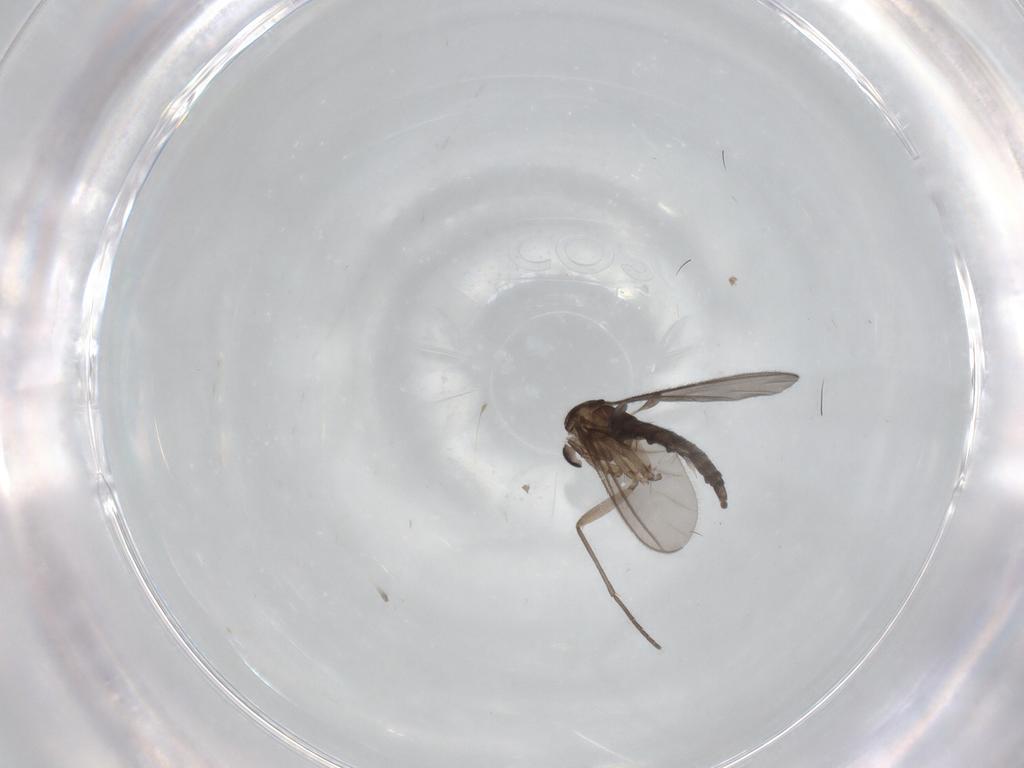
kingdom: Animalia
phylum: Arthropoda
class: Insecta
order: Diptera
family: Sciaridae
